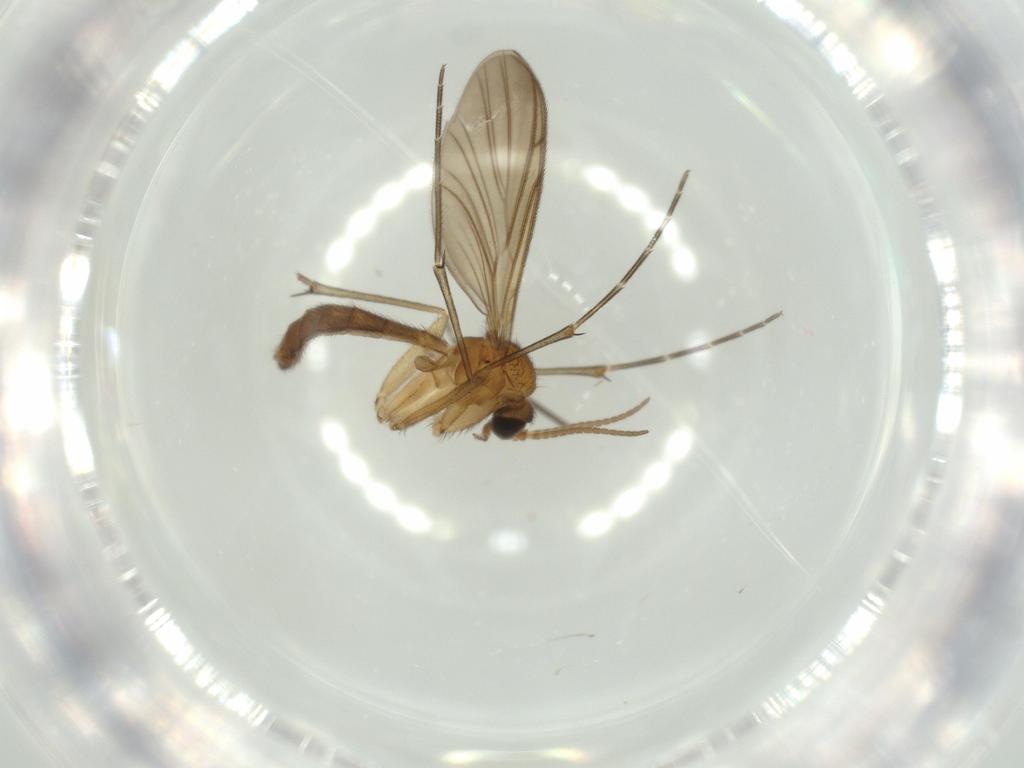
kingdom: Animalia
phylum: Arthropoda
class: Insecta
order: Diptera
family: Keroplatidae
